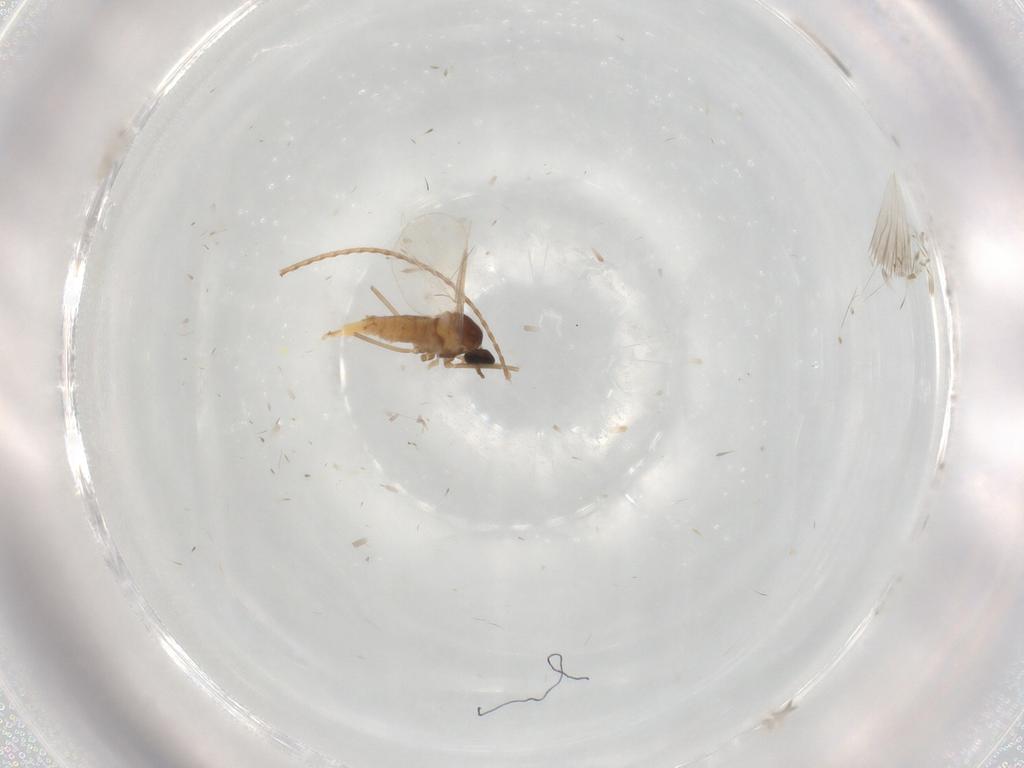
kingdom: Animalia
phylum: Arthropoda
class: Insecta
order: Diptera
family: Cecidomyiidae
